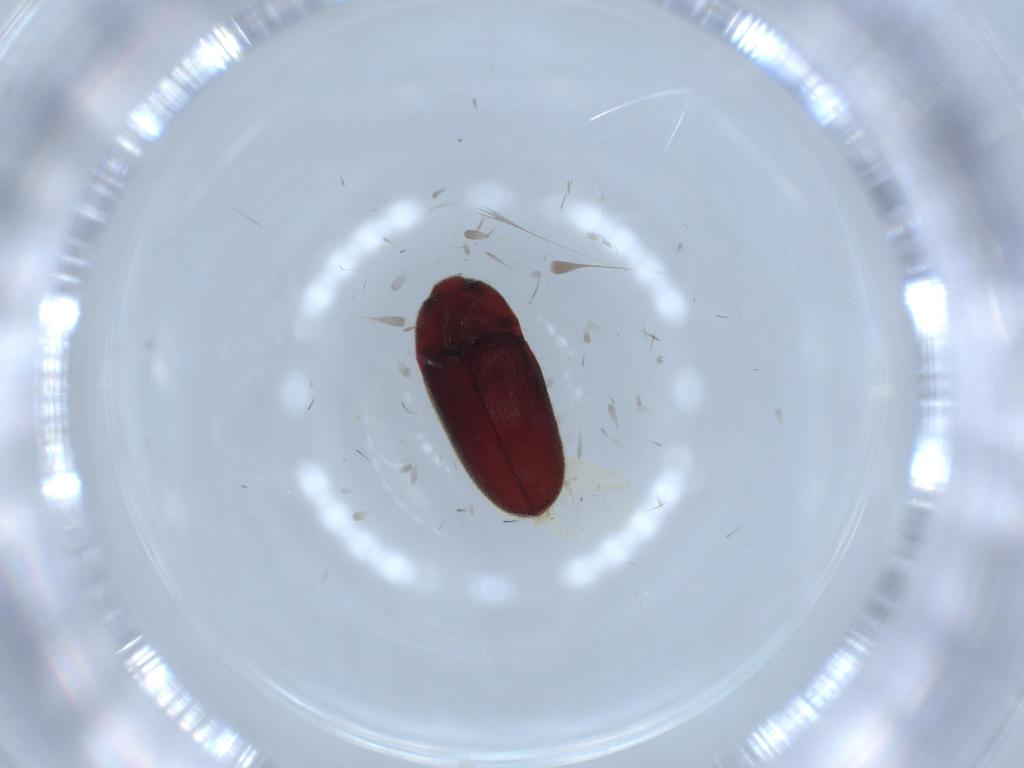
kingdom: Animalia
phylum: Arthropoda
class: Insecta
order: Coleoptera
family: Throscidae
